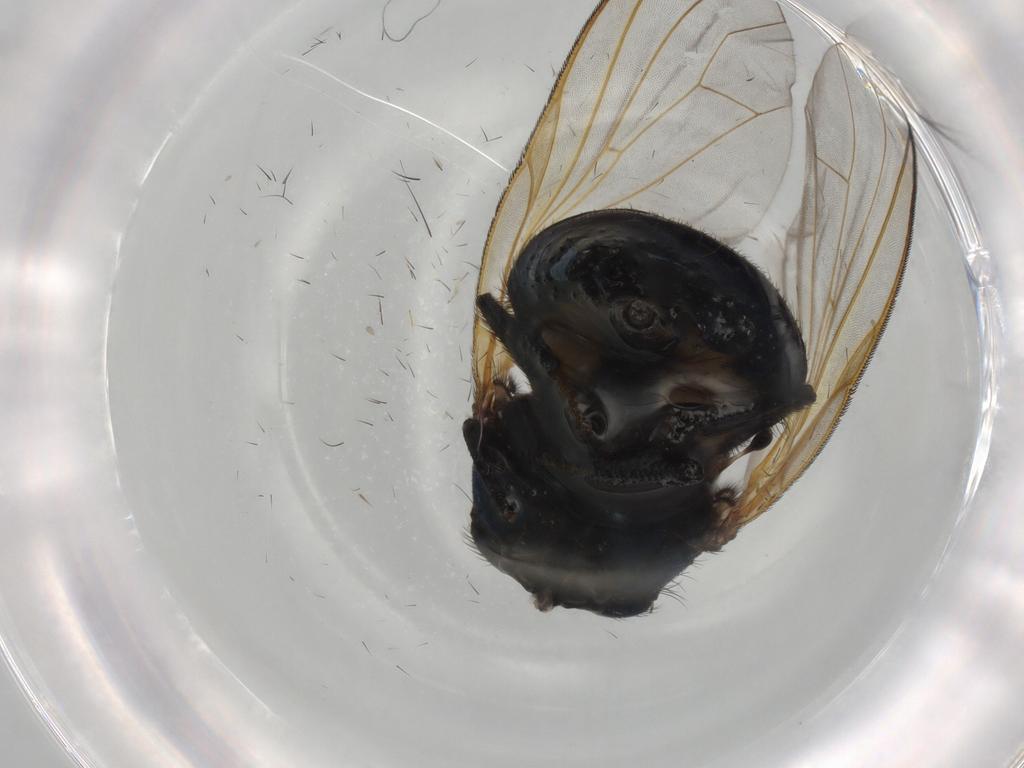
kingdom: Animalia
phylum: Arthropoda
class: Insecta
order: Diptera
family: Lonchaeidae
